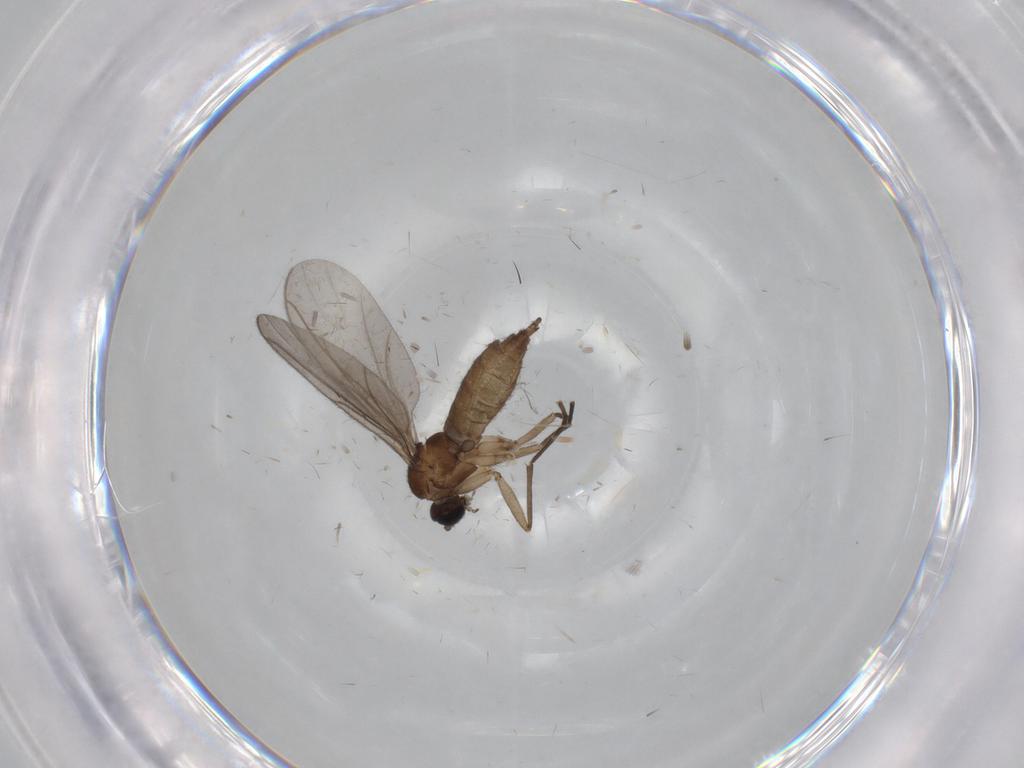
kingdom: Animalia
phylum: Arthropoda
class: Insecta
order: Diptera
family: Sciaridae
